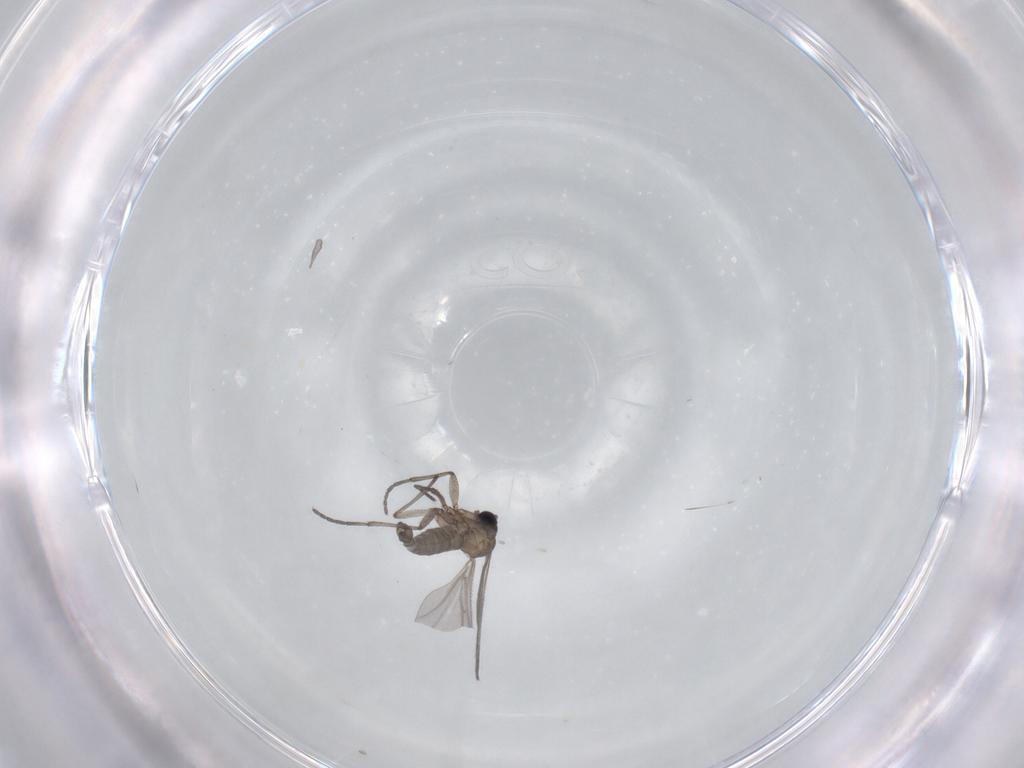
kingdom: Animalia
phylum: Arthropoda
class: Insecta
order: Diptera
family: Sciaridae
